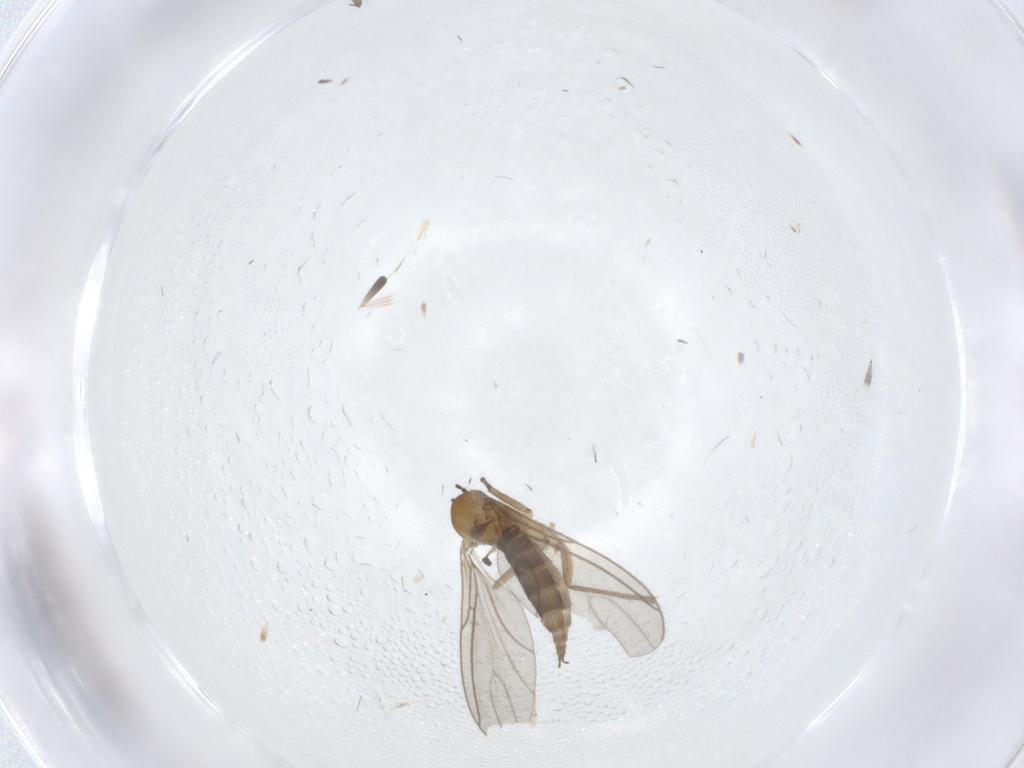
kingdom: Animalia
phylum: Arthropoda
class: Insecta
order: Diptera
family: Sciaridae
